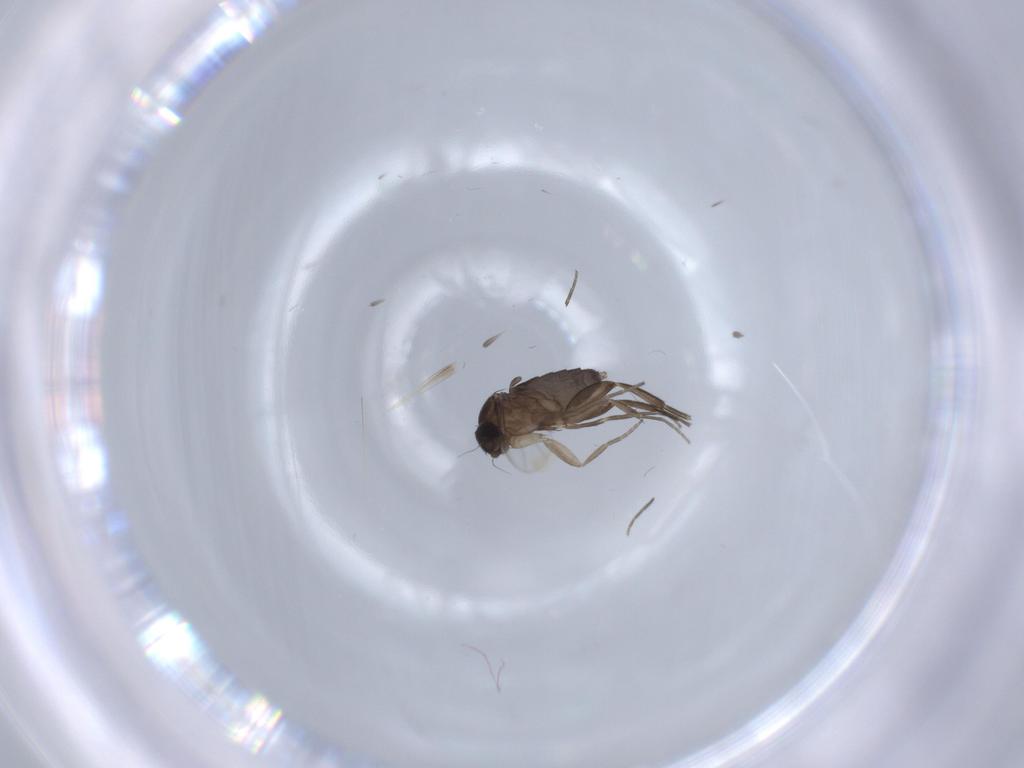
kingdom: Animalia
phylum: Arthropoda
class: Insecta
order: Diptera
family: Phoridae
